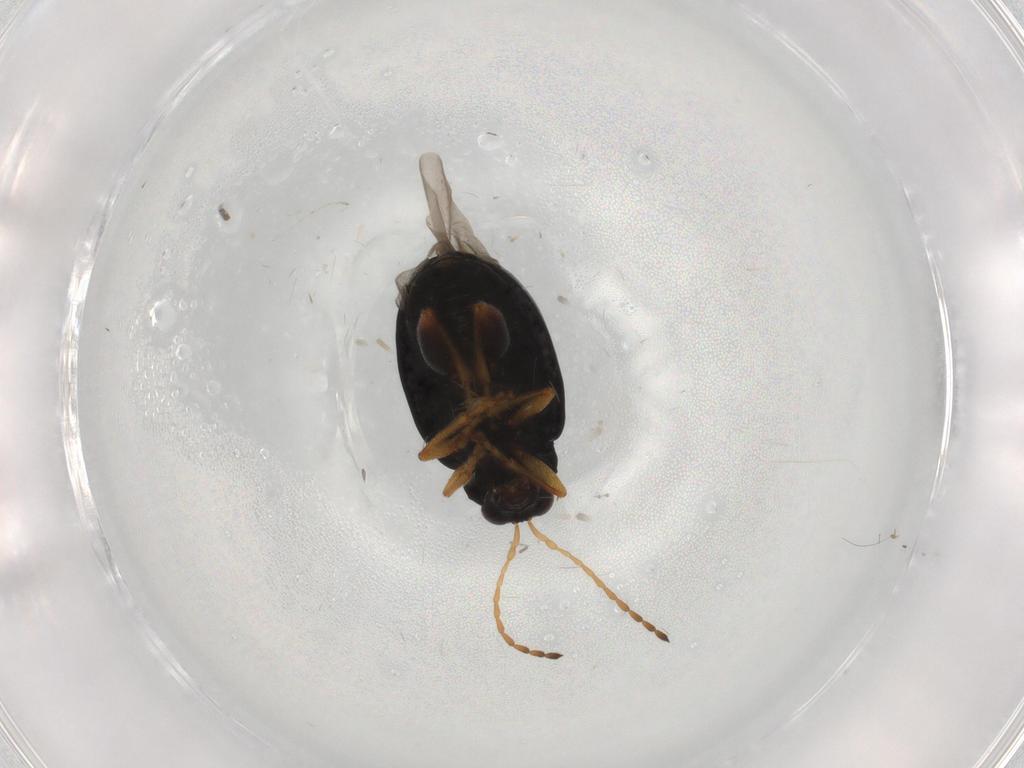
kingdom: Animalia
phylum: Arthropoda
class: Insecta
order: Coleoptera
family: Chrysomelidae
